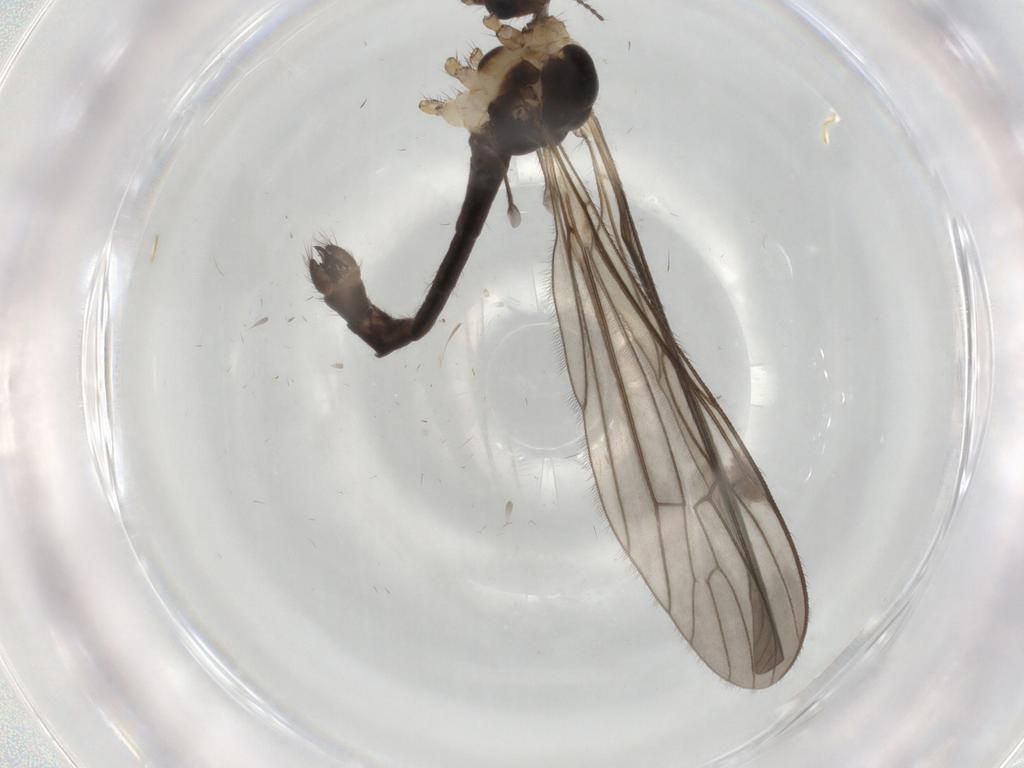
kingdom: Animalia
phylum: Arthropoda
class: Insecta
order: Diptera
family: Limoniidae
